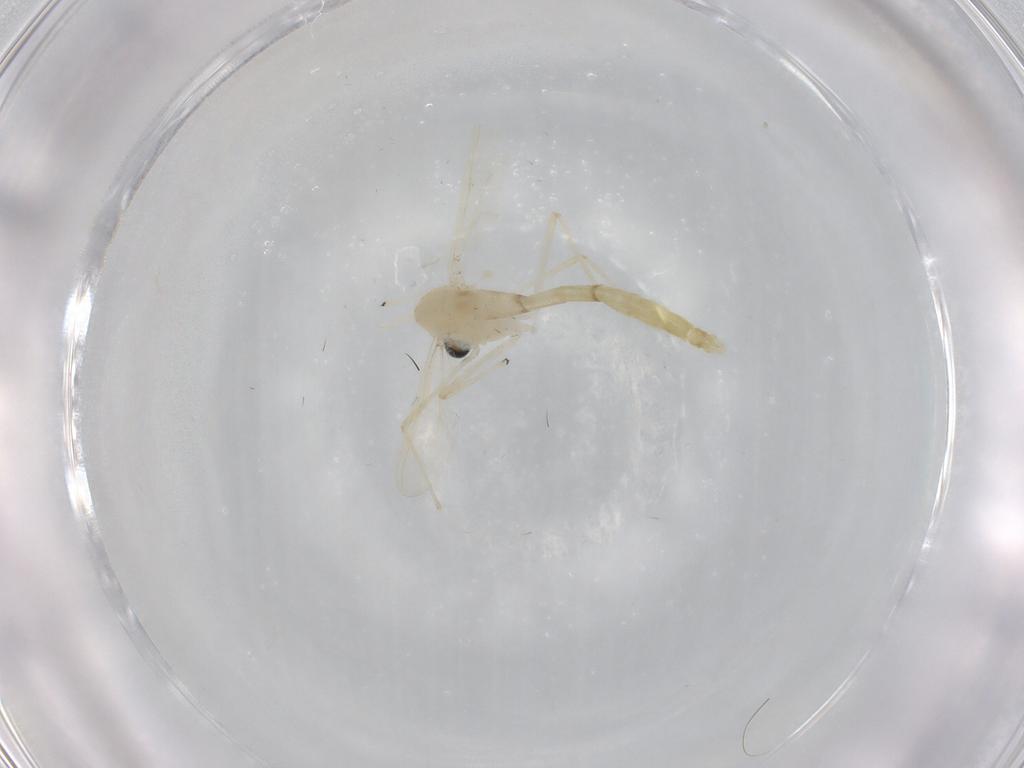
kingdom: Animalia
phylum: Arthropoda
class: Insecta
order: Diptera
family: Chironomidae
